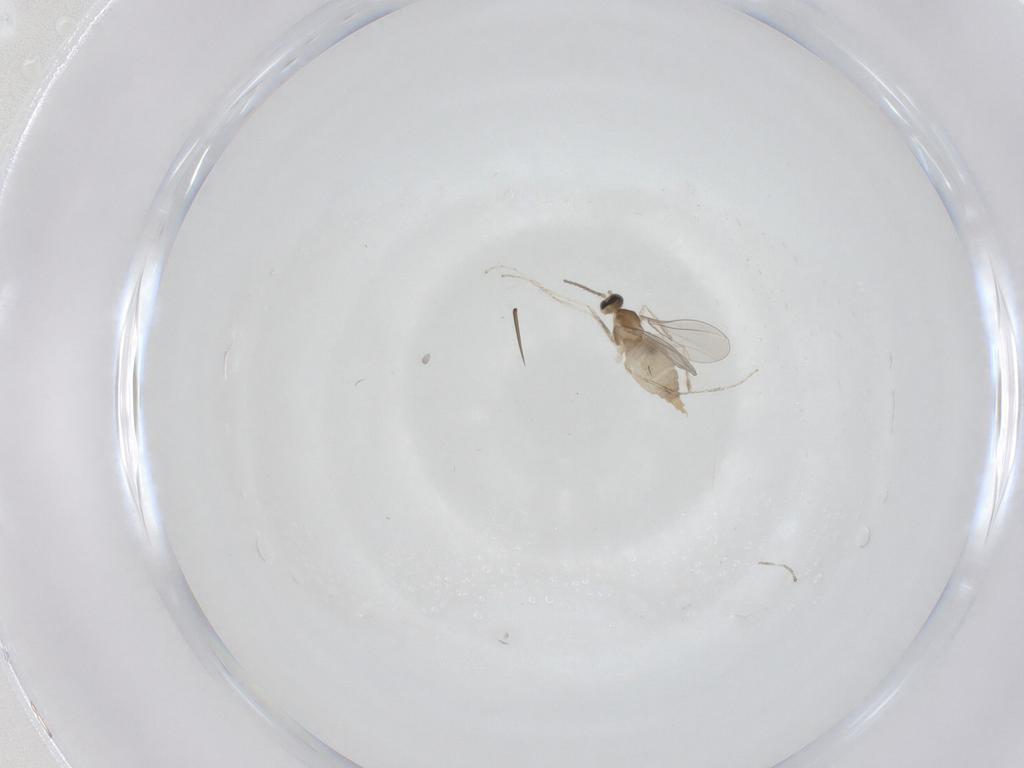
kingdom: Animalia
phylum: Arthropoda
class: Insecta
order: Diptera
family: Cecidomyiidae
